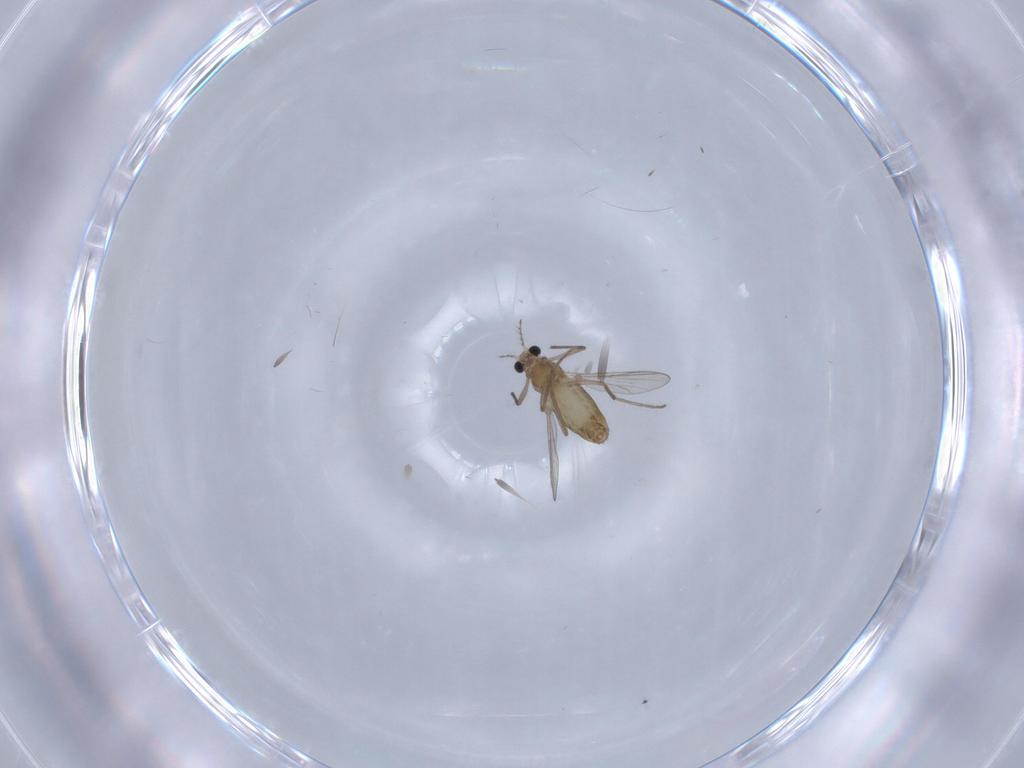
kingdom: Animalia
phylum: Arthropoda
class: Insecta
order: Diptera
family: Chironomidae
